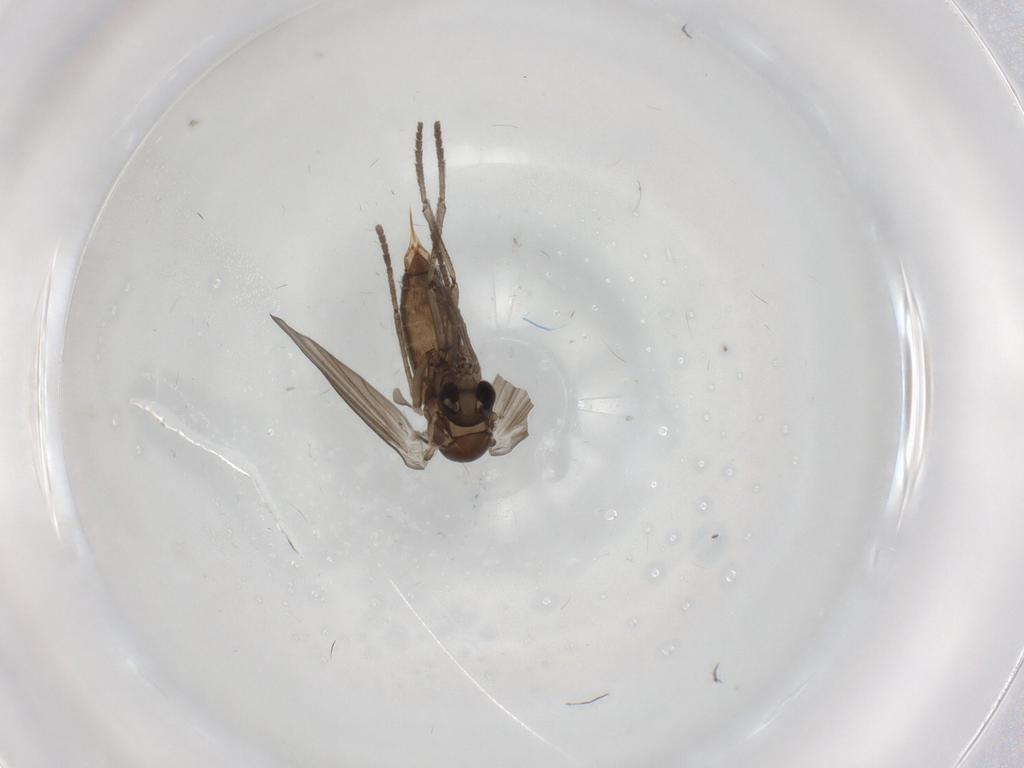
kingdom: Animalia
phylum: Arthropoda
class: Insecta
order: Diptera
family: Psychodidae
